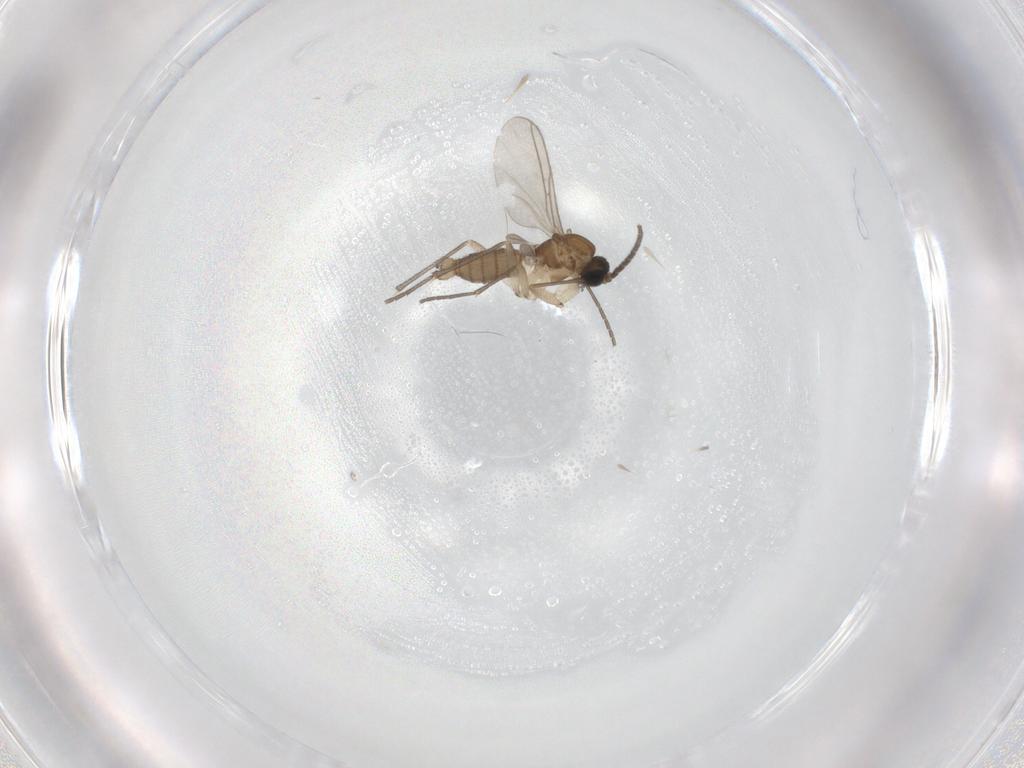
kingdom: Animalia
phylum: Arthropoda
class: Insecta
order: Diptera
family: Sciaridae
